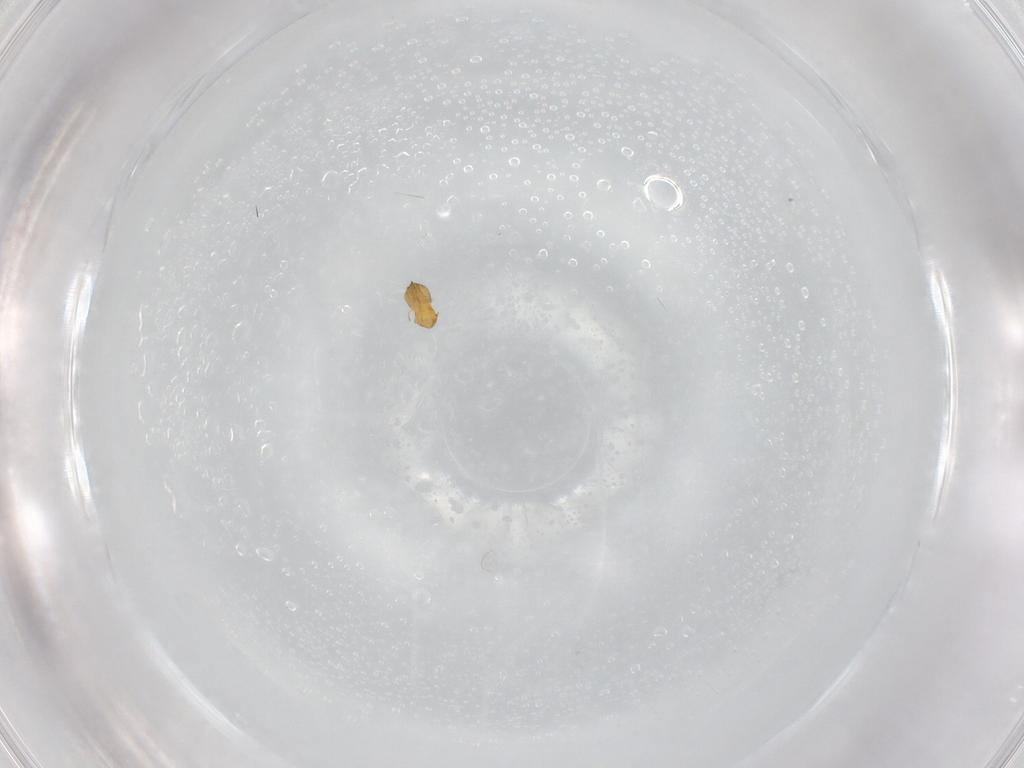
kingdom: Animalia
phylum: Arthropoda
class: Insecta
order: Hymenoptera
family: Trichogrammatidae
